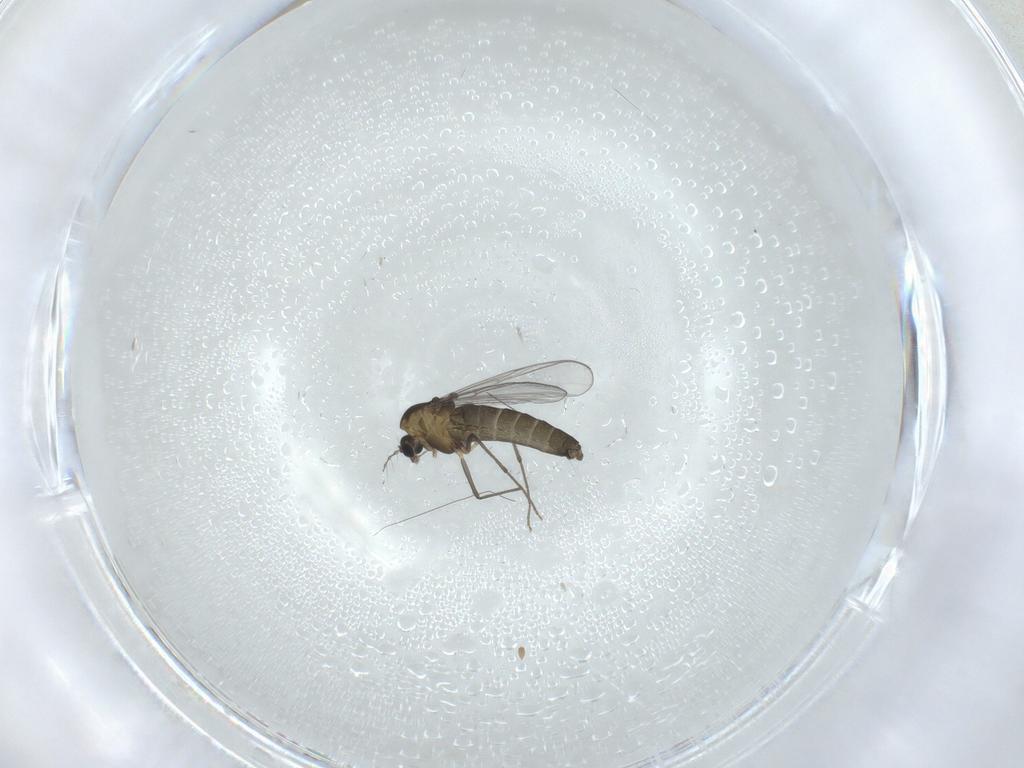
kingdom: Animalia
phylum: Arthropoda
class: Insecta
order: Diptera
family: Chironomidae
